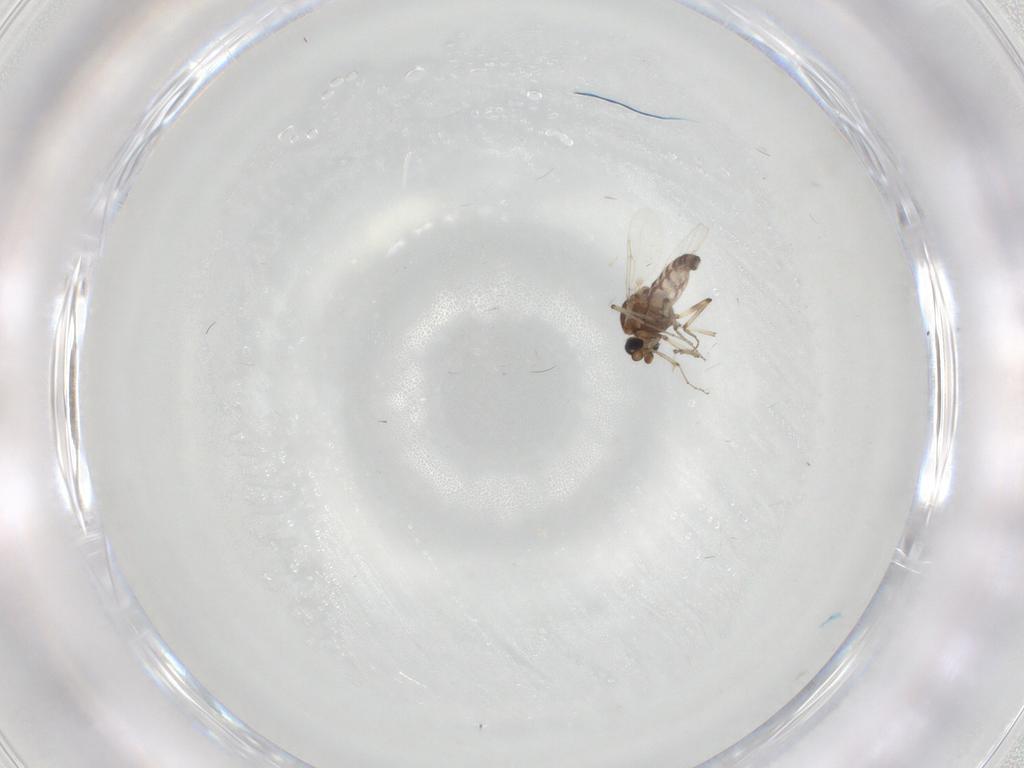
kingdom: Animalia
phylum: Arthropoda
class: Insecta
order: Diptera
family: Ceratopogonidae
